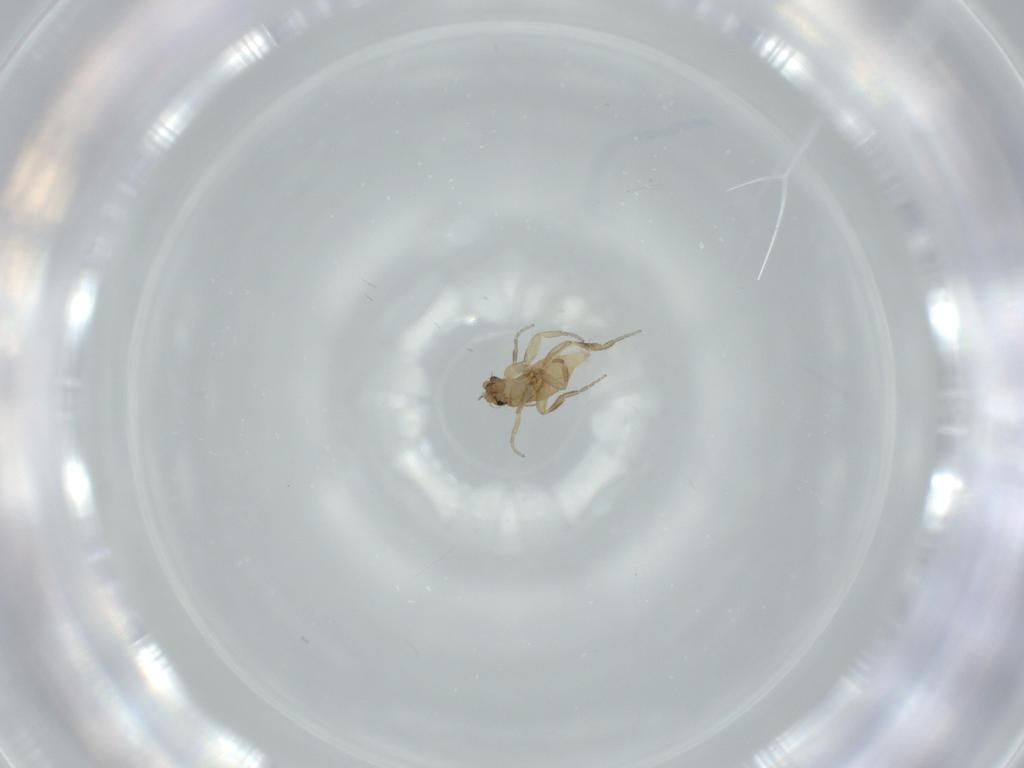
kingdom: Animalia
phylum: Arthropoda
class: Insecta
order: Diptera
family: Phoridae
